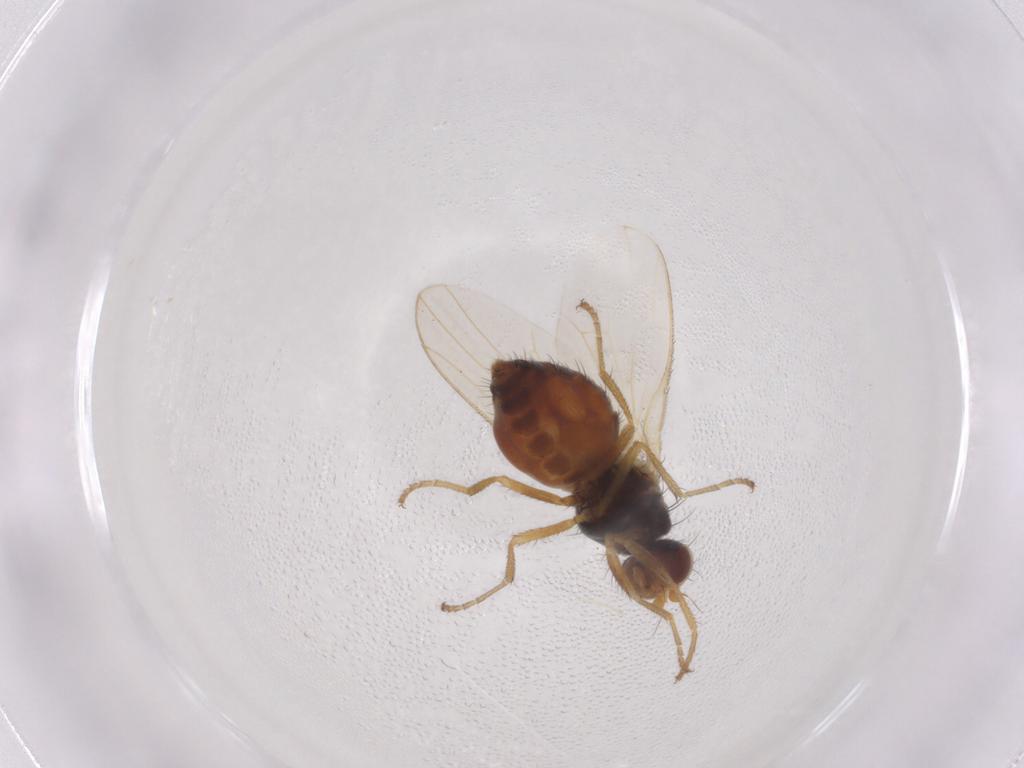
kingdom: Animalia
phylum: Arthropoda
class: Insecta
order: Diptera
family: Heleomyzidae
